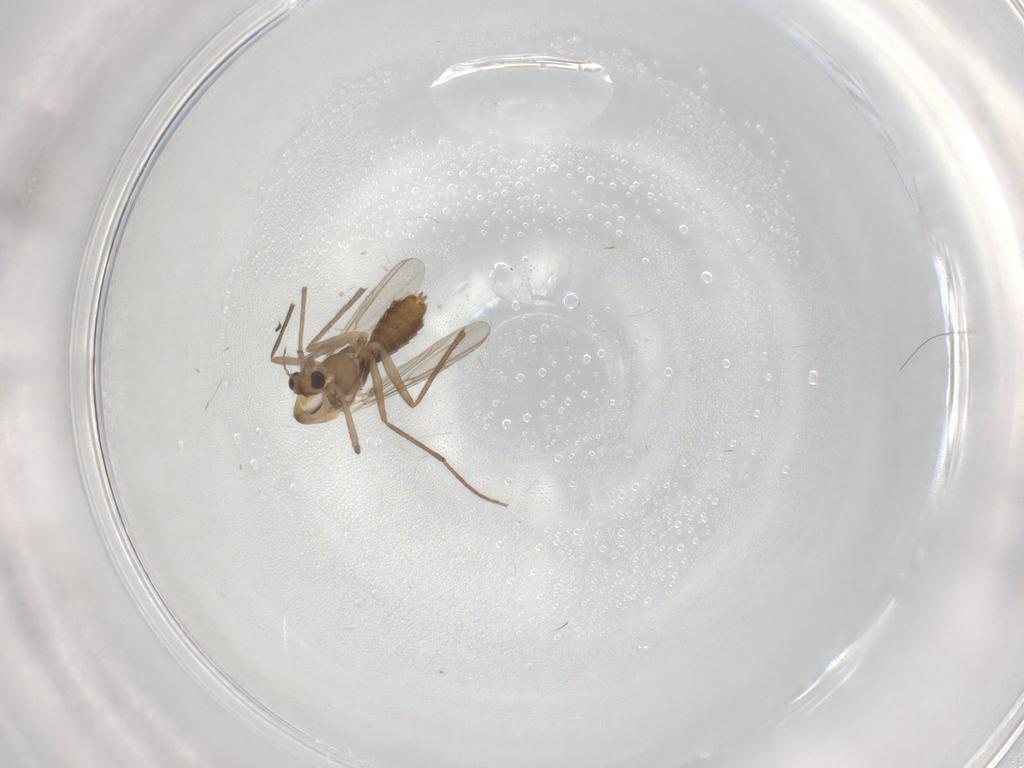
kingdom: Animalia
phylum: Arthropoda
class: Insecta
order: Diptera
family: Chironomidae
